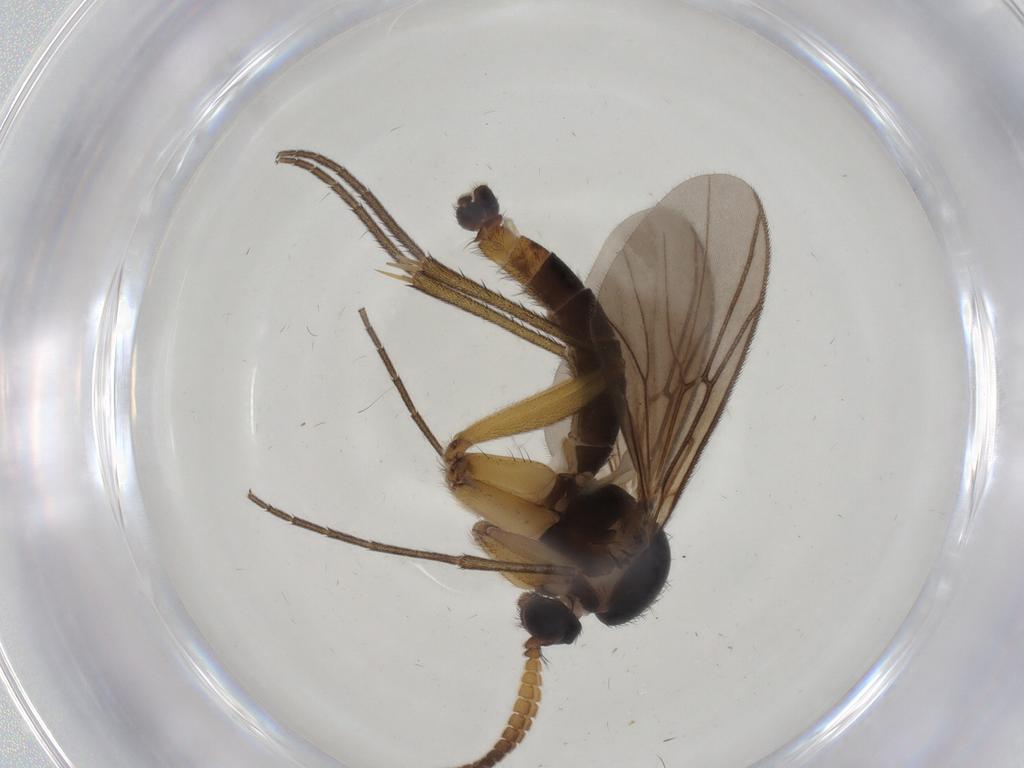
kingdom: Animalia
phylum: Arthropoda
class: Insecta
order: Diptera
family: Mycetophilidae
